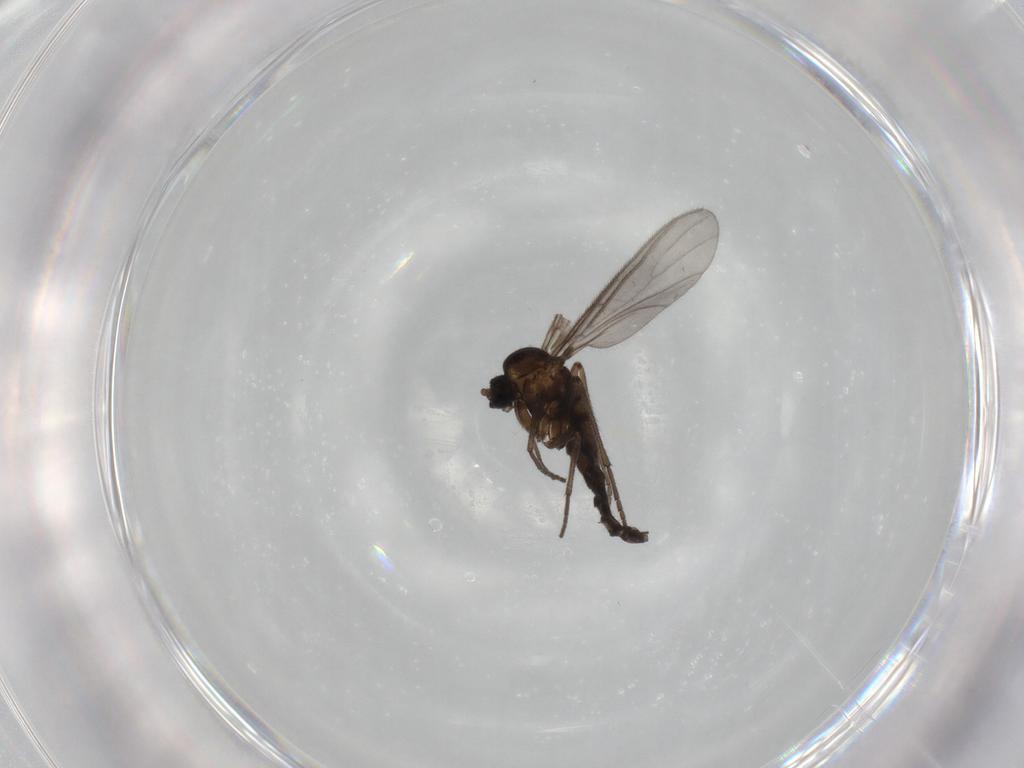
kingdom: Animalia
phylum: Arthropoda
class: Insecta
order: Diptera
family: Sciaridae
